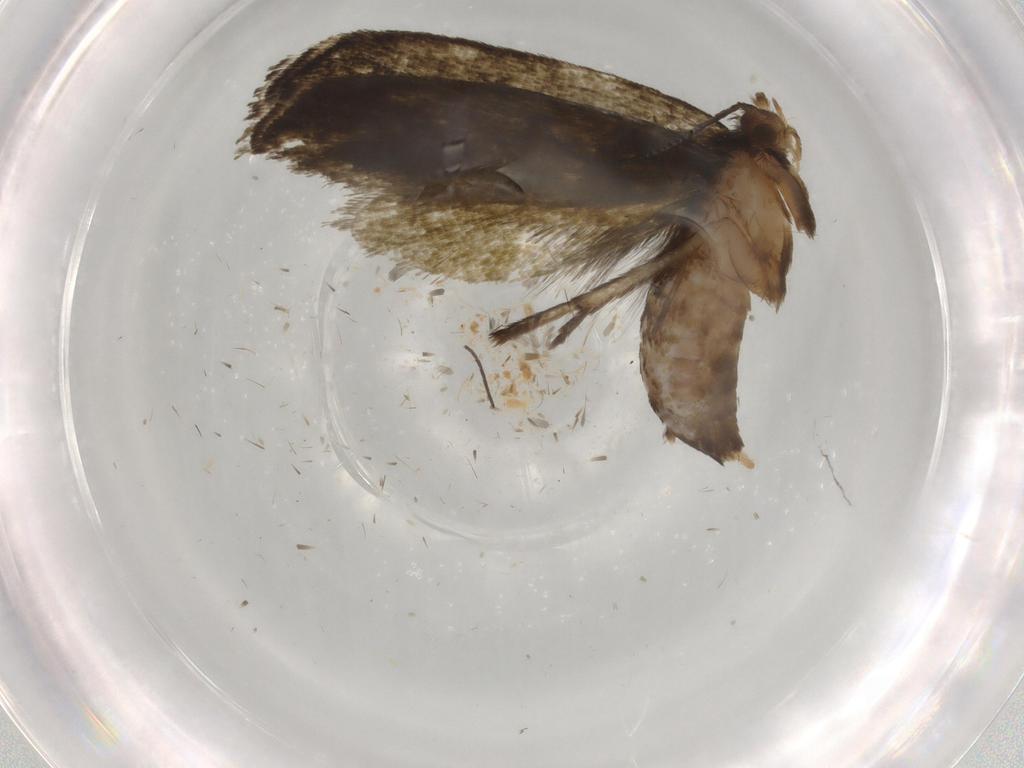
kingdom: Animalia
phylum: Arthropoda
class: Insecta
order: Lepidoptera
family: Tineidae
